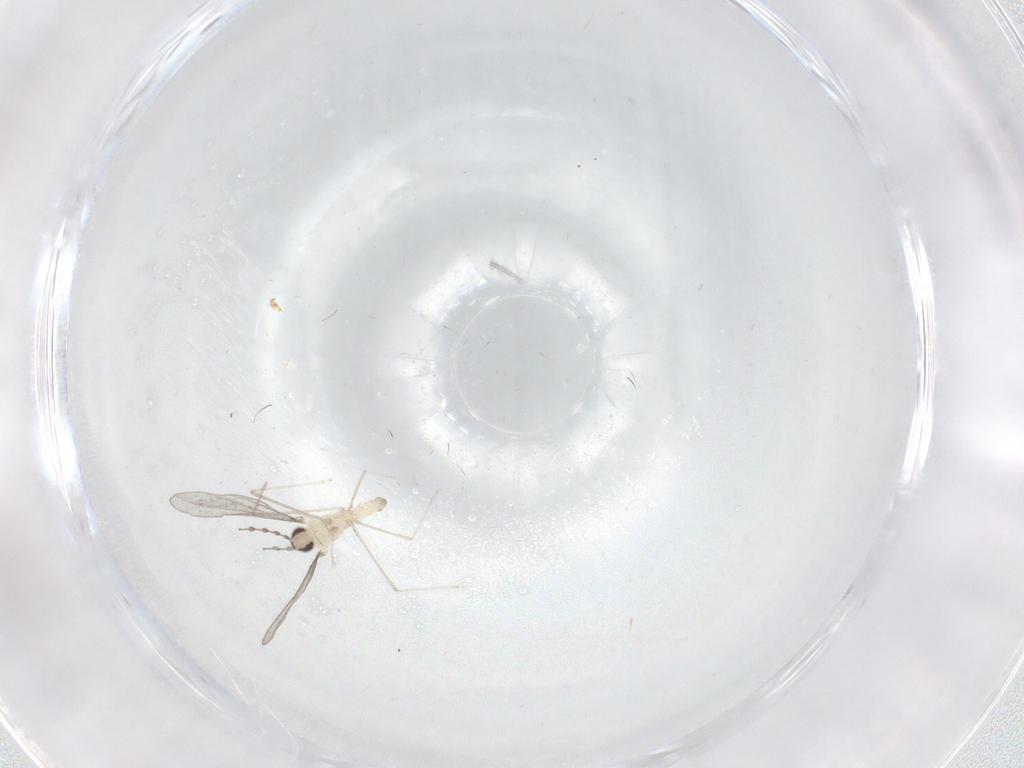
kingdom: Animalia
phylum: Arthropoda
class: Insecta
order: Diptera
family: Cecidomyiidae
